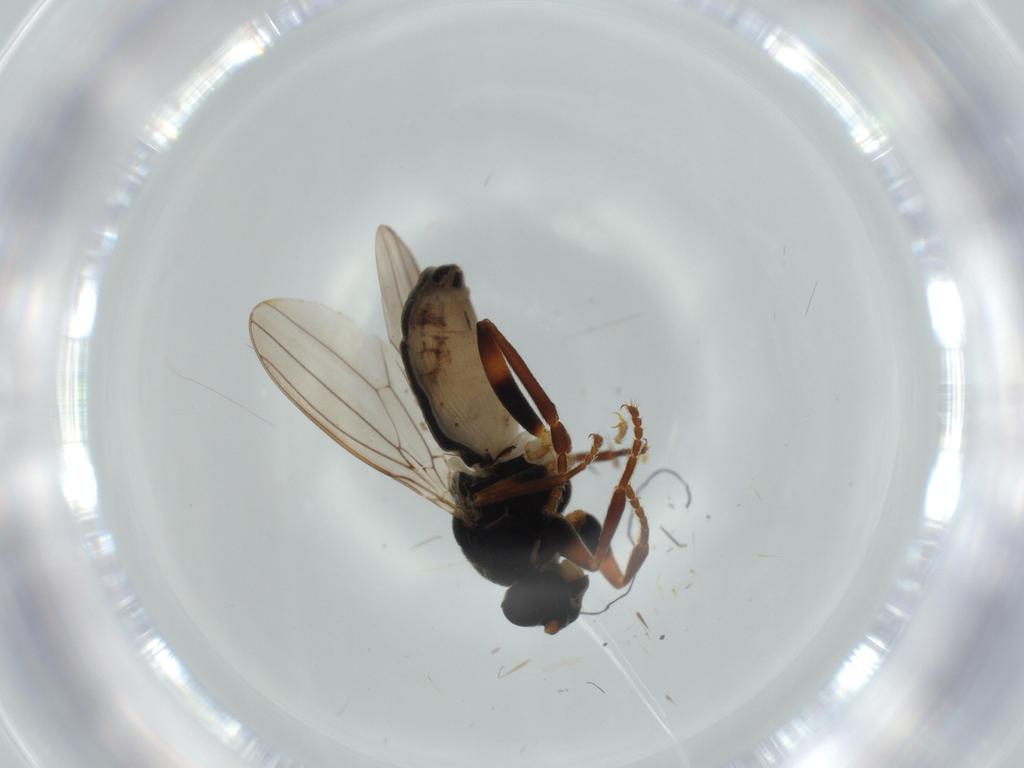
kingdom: Animalia
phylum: Arthropoda
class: Insecta
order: Diptera
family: Sphaeroceridae
